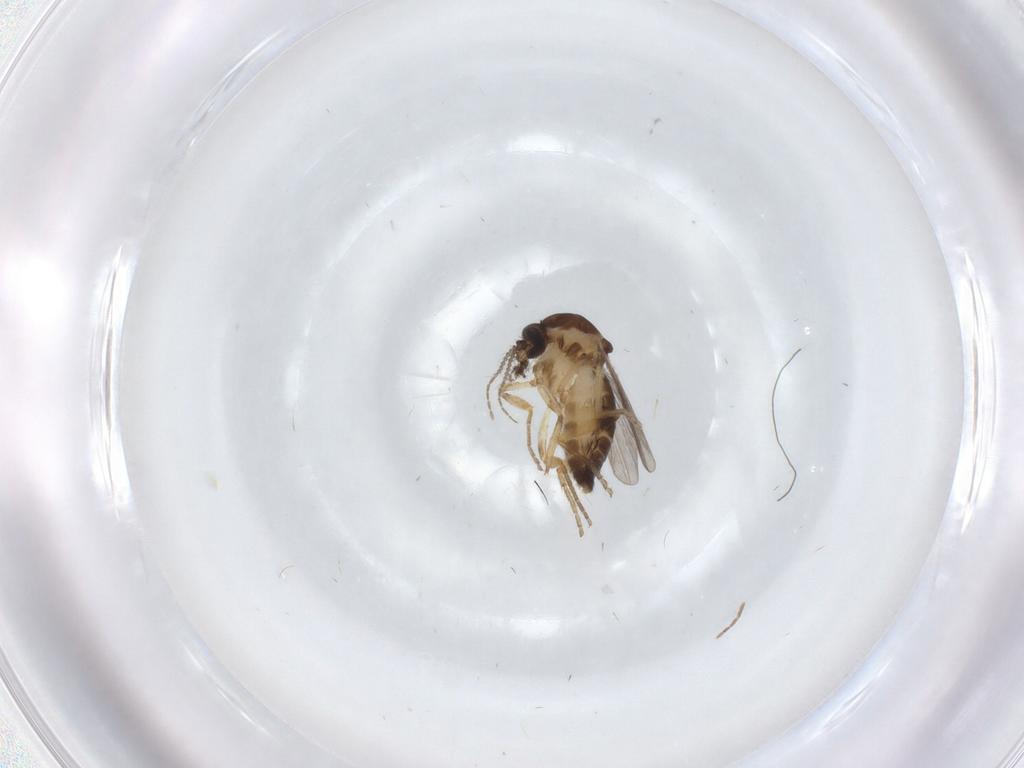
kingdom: Animalia
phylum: Arthropoda
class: Insecta
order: Diptera
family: Ceratopogonidae
